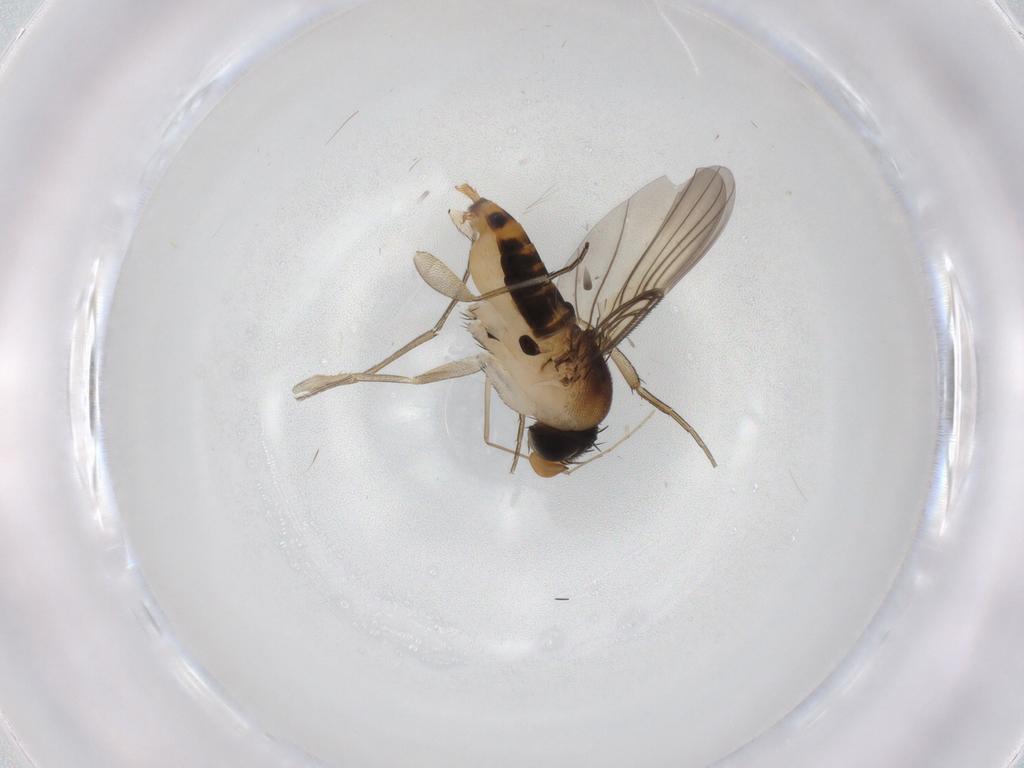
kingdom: Animalia
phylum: Arthropoda
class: Insecta
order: Diptera
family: Phoridae
